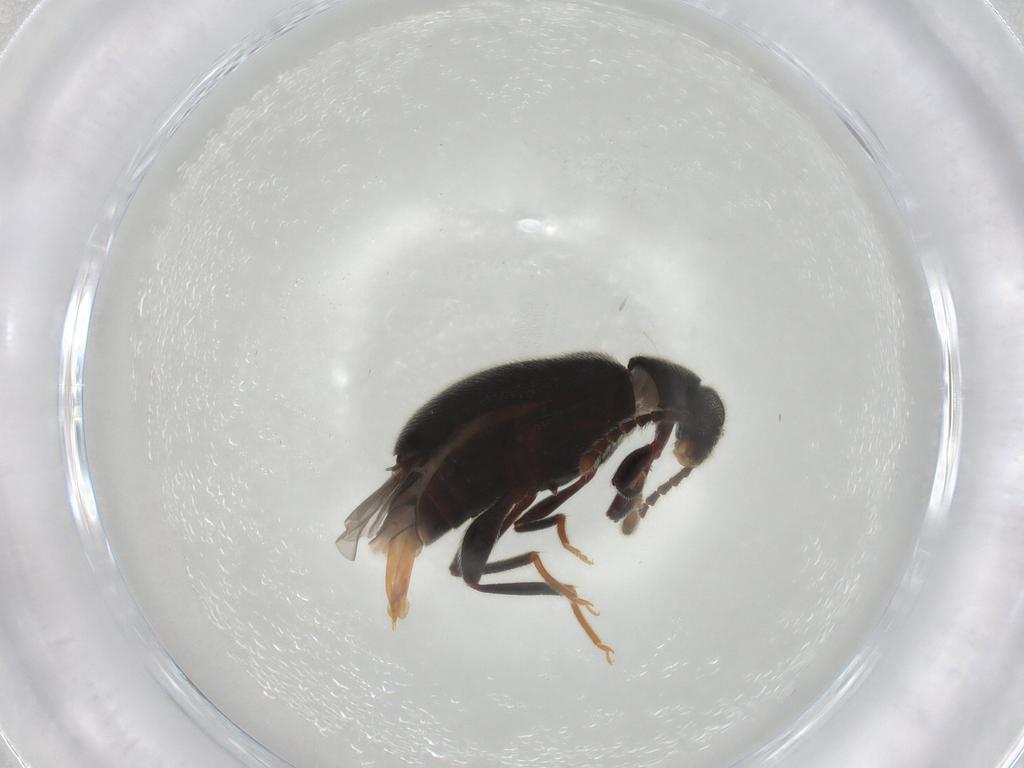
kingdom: Animalia
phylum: Arthropoda
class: Insecta
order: Coleoptera
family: Aderidae
